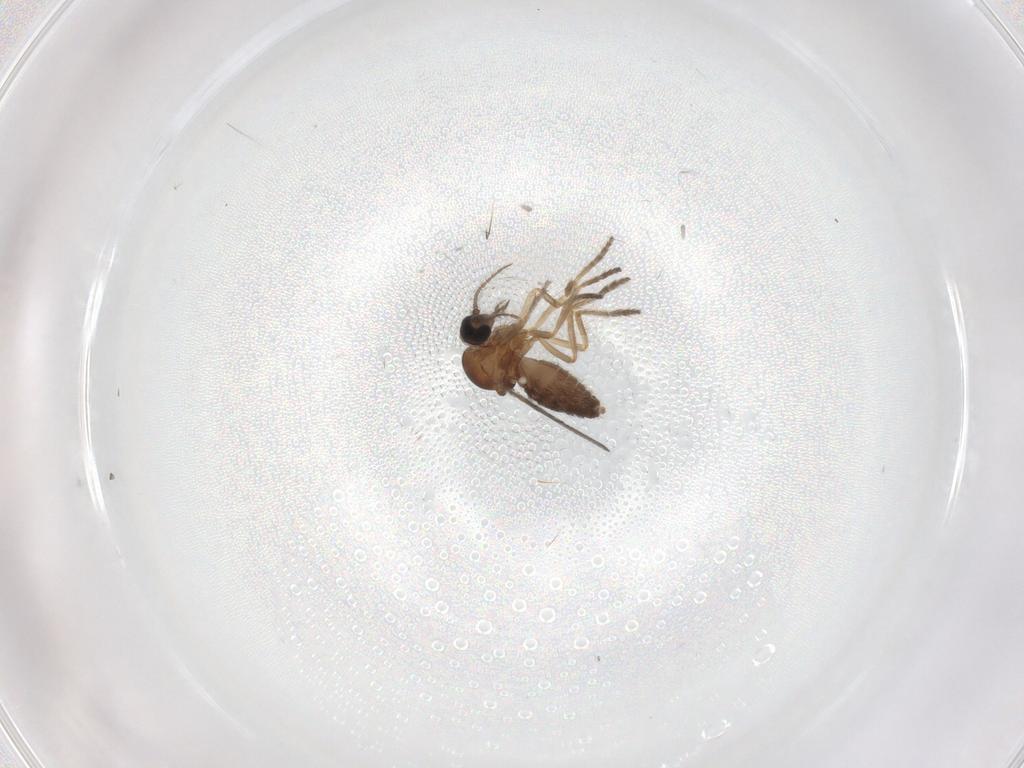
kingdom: Animalia
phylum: Arthropoda
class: Insecta
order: Diptera
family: Ceratopogonidae
